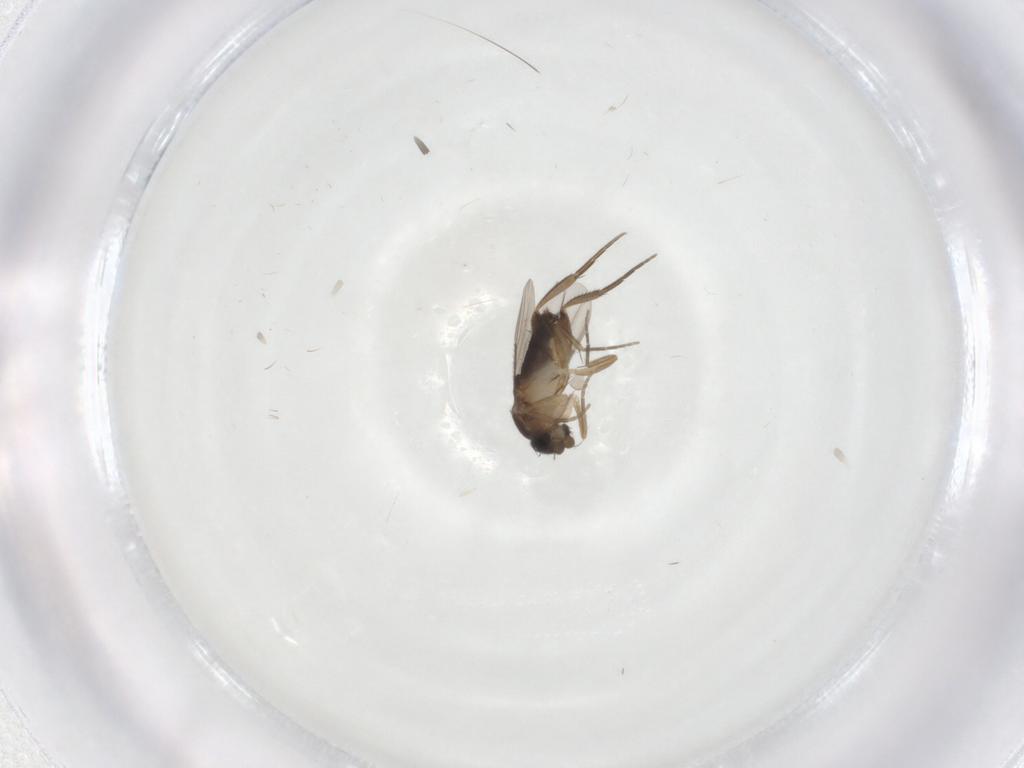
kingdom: Animalia
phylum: Arthropoda
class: Insecta
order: Diptera
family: Phoridae
